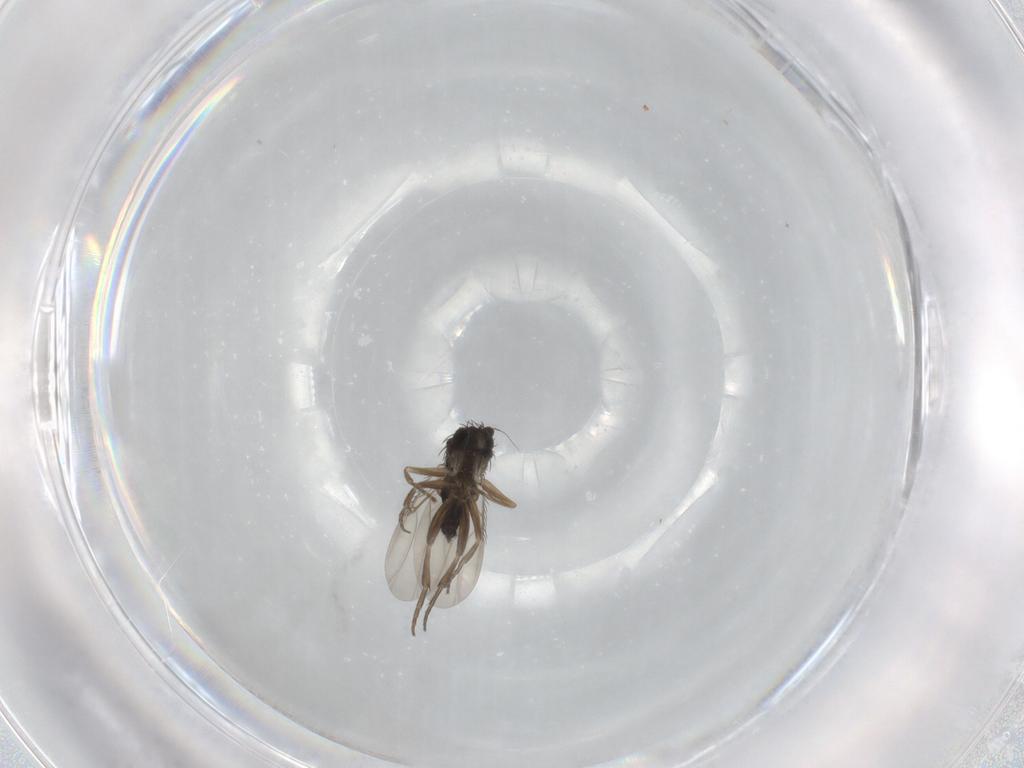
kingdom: Animalia
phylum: Arthropoda
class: Insecta
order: Diptera
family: Phoridae
